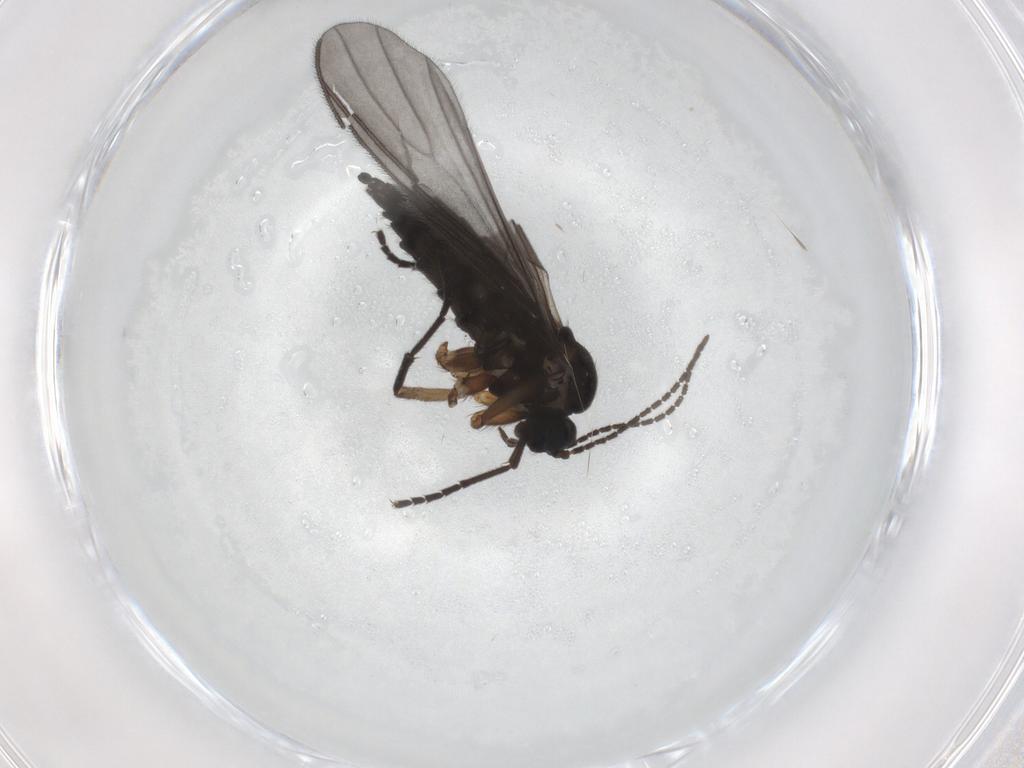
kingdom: Animalia
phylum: Arthropoda
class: Insecta
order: Diptera
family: Sciaridae
